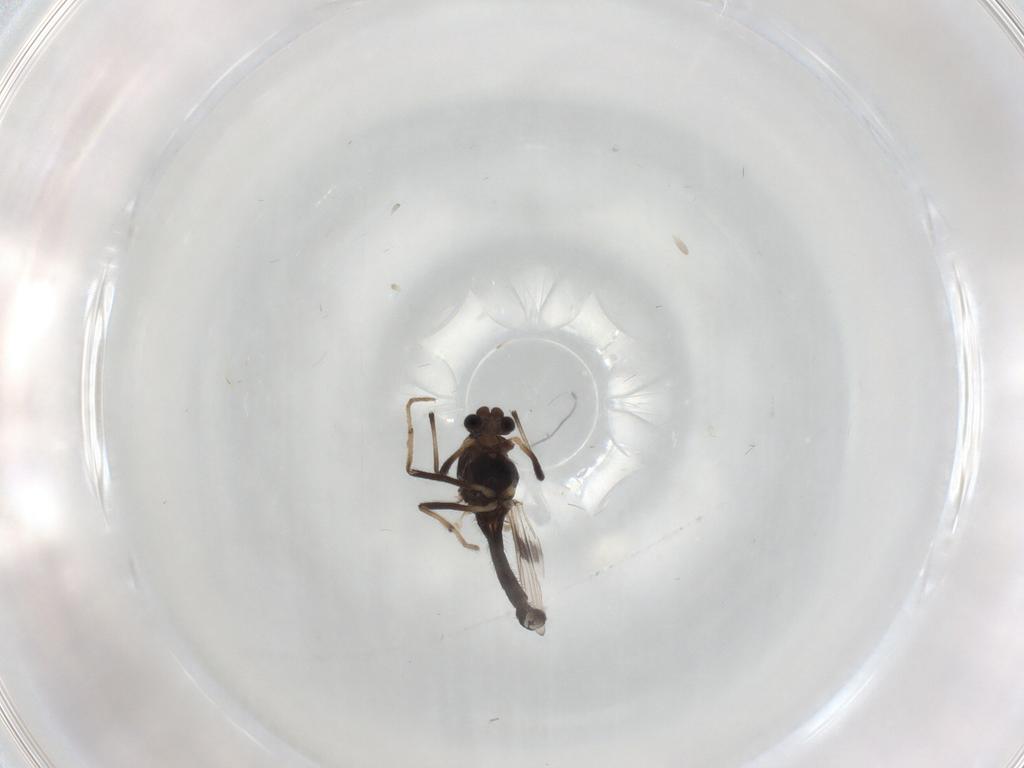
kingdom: Animalia
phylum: Arthropoda
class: Insecta
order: Diptera
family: Chironomidae
